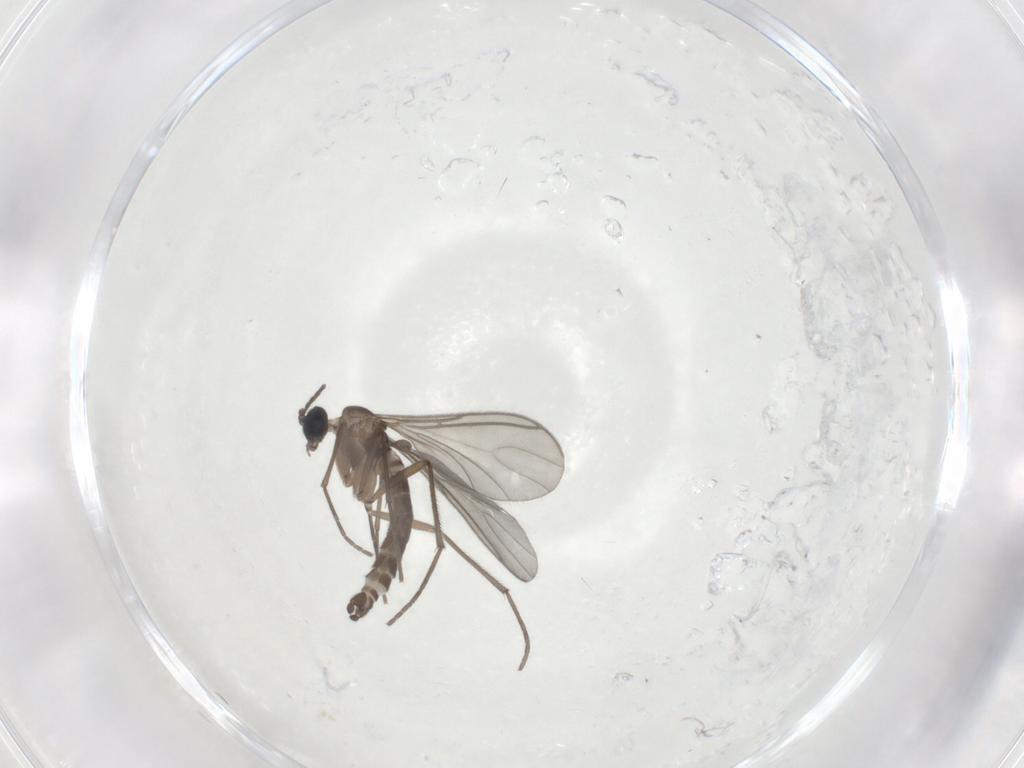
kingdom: Animalia
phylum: Arthropoda
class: Insecta
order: Diptera
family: Sciaridae
